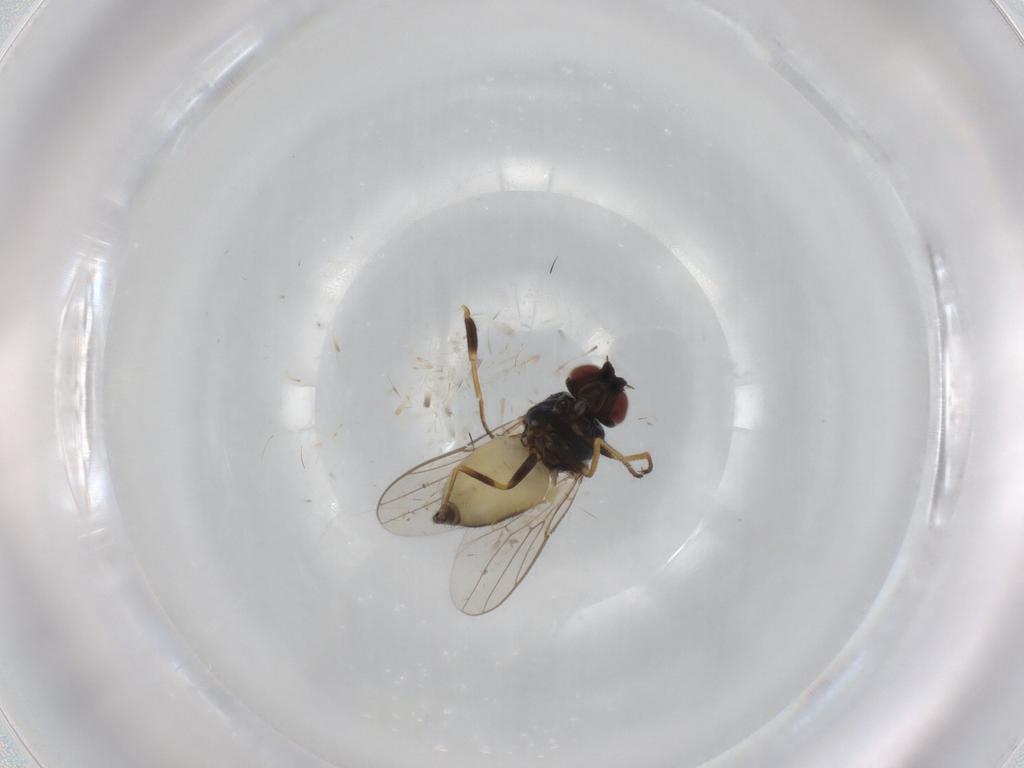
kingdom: Animalia
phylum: Arthropoda
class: Insecta
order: Diptera
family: Chloropidae
